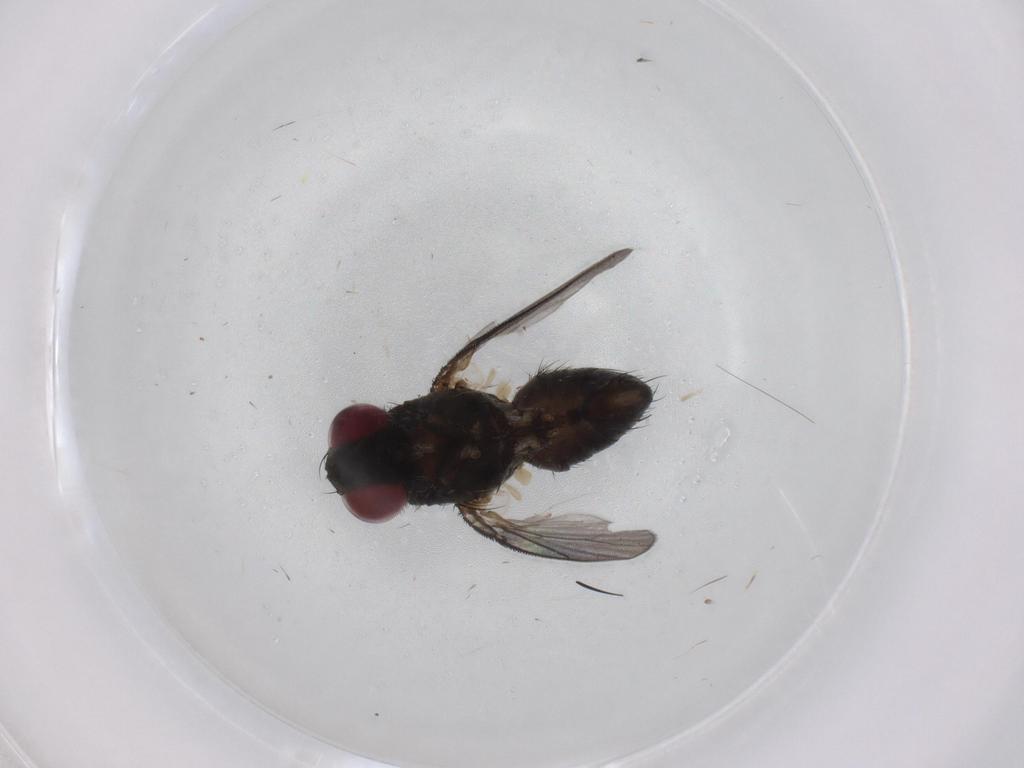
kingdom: Animalia
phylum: Arthropoda
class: Insecta
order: Diptera
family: Muscidae
